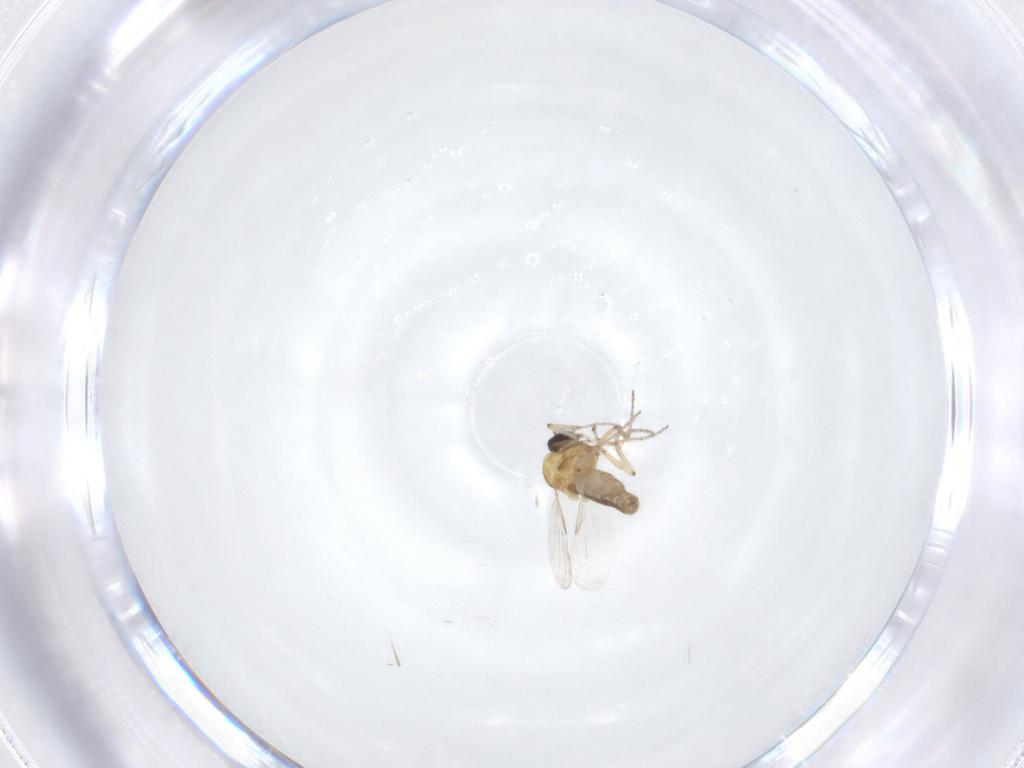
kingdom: Animalia
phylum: Arthropoda
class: Insecta
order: Diptera
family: Ceratopogonidae
